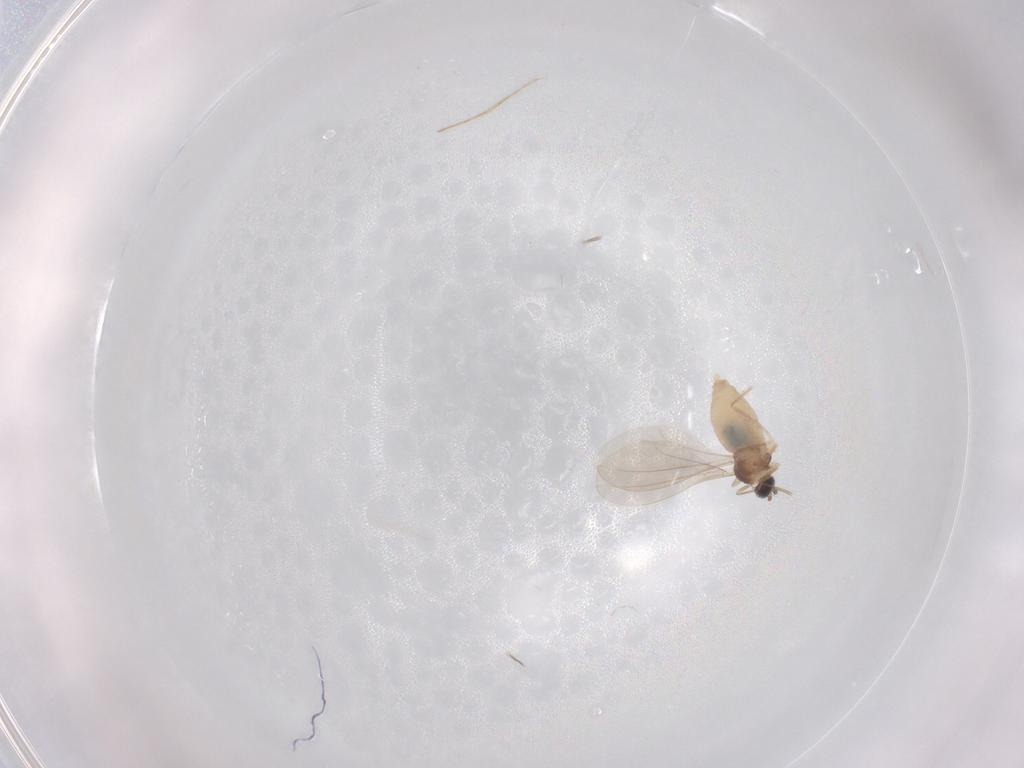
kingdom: Animalia
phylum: Arthropoda
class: Insecta
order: Diptera
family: Cecidomyiidae
